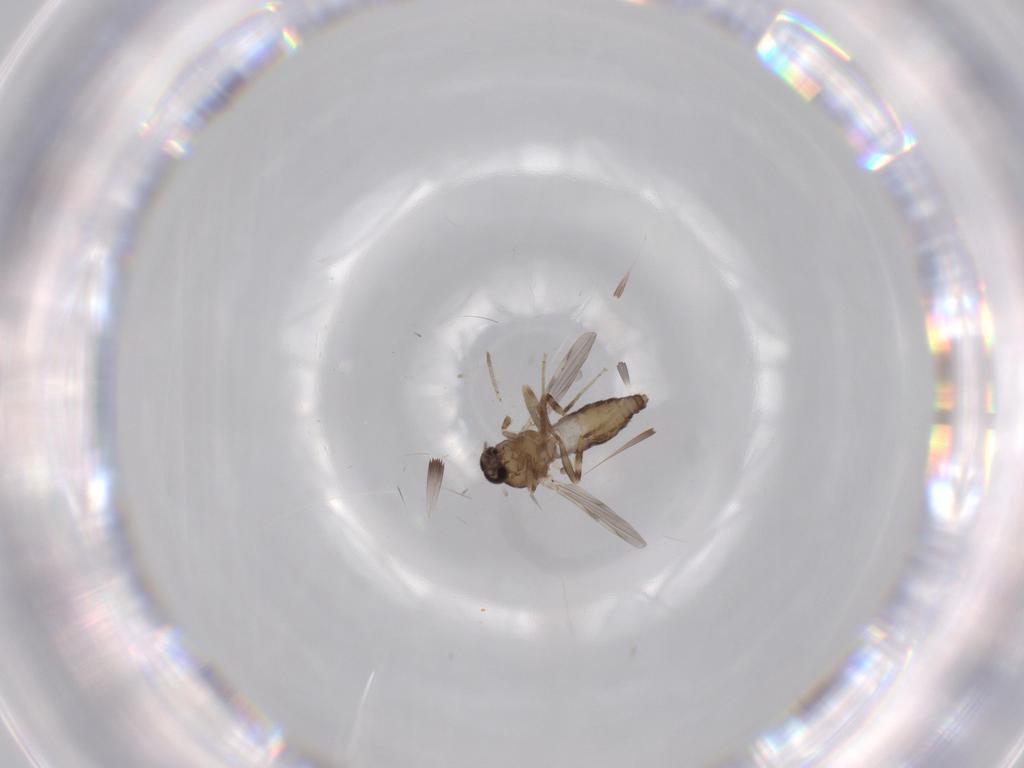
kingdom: Animalia
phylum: Arthropoda
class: Insecta
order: Diptera
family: Ceratopogonidae
